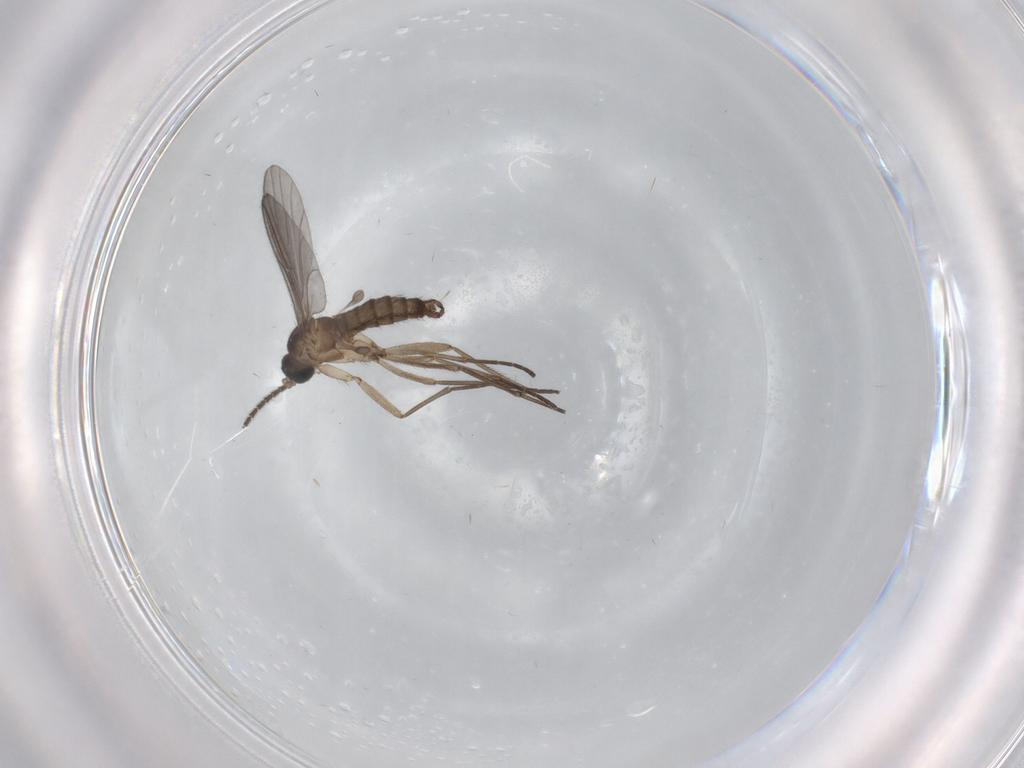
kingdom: Animalia
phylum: Arthropoda
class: Insecta
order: Diptera
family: Sciaridae
